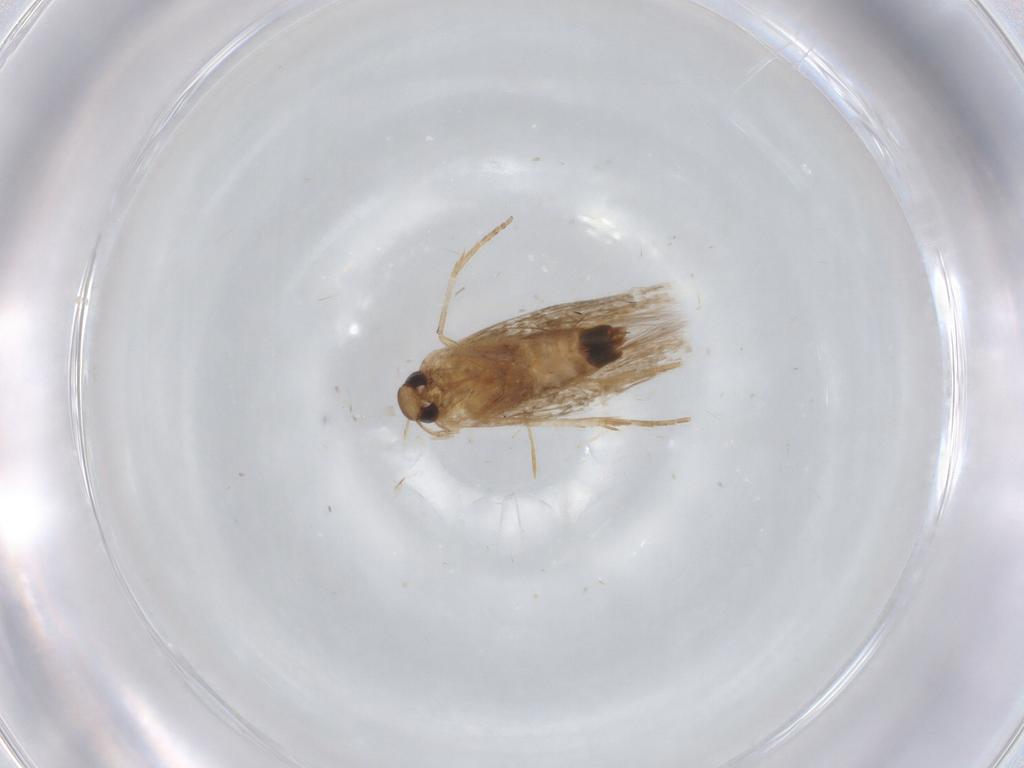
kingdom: Animalia
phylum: Arthropoda
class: Insecta
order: Lepidoptera
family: Cosmopterigidae
